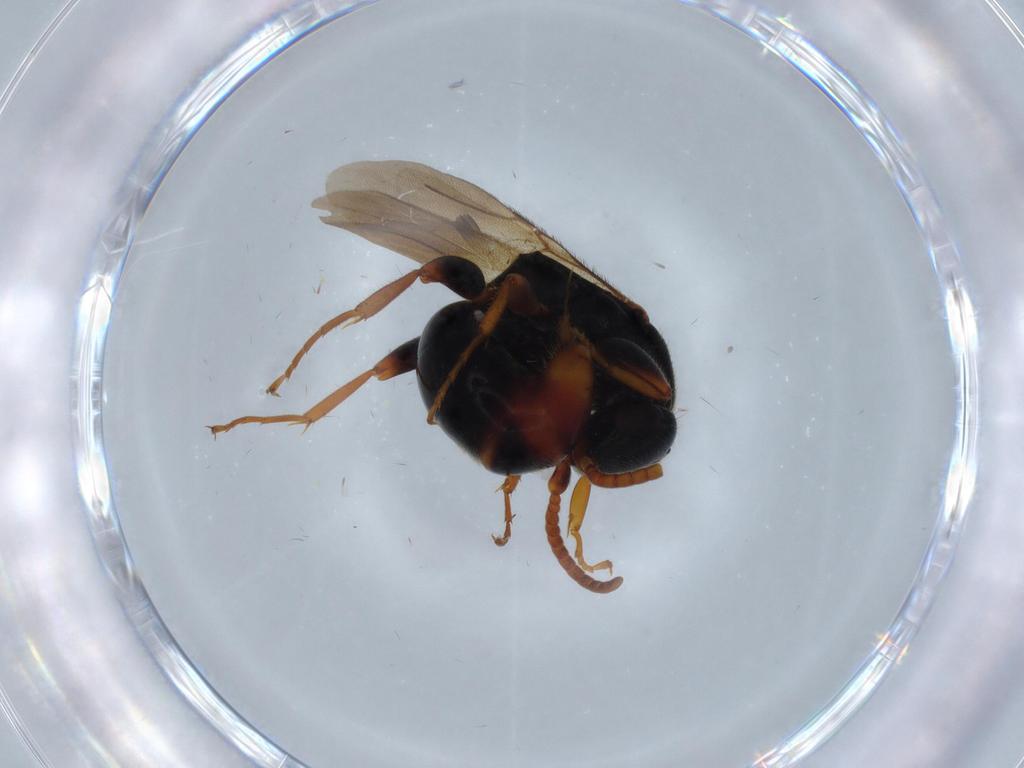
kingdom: Animalia
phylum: Arthropoda
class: Insecta
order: Hymenoptera
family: Bethylidae
